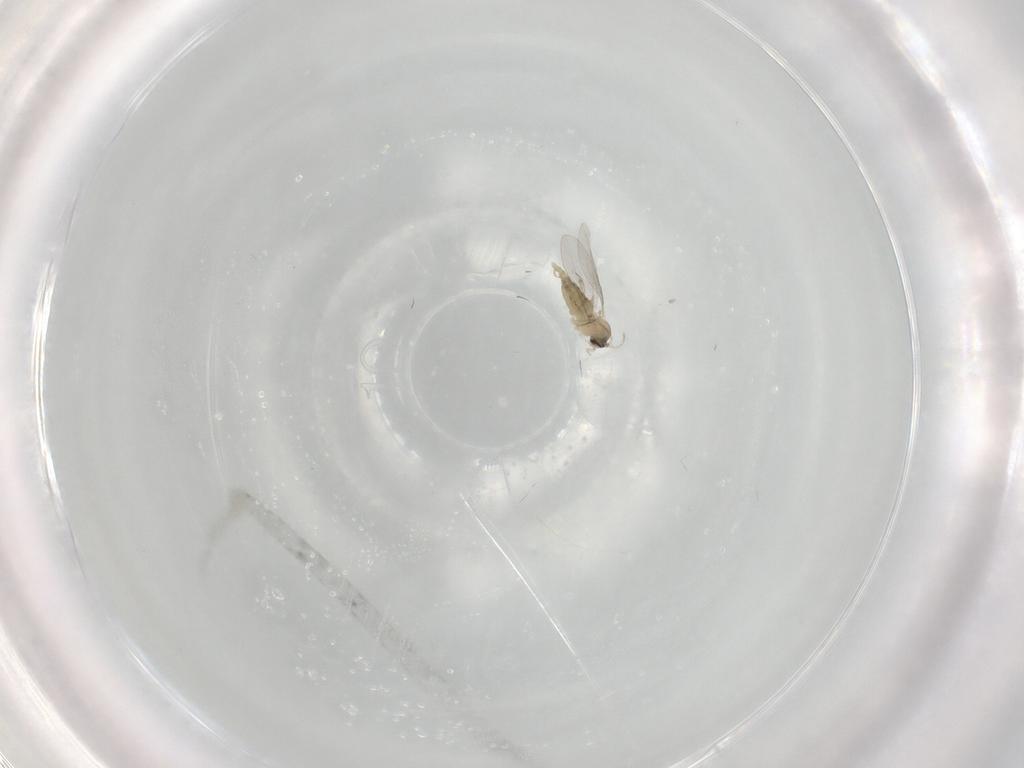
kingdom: Animalia
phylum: Arthropoda
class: Insecta
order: Diptera
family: Cecidomyiidae
